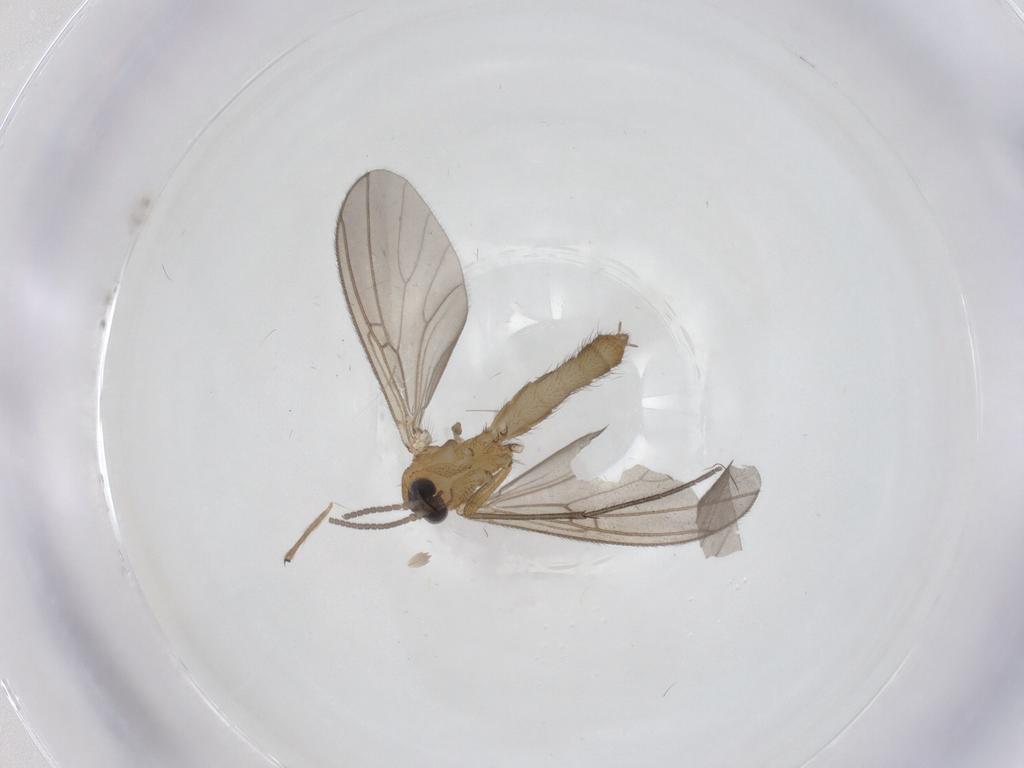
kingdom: Animalia
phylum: Arthropoda
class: Insecta
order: Diptera
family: Mycetophilidae
